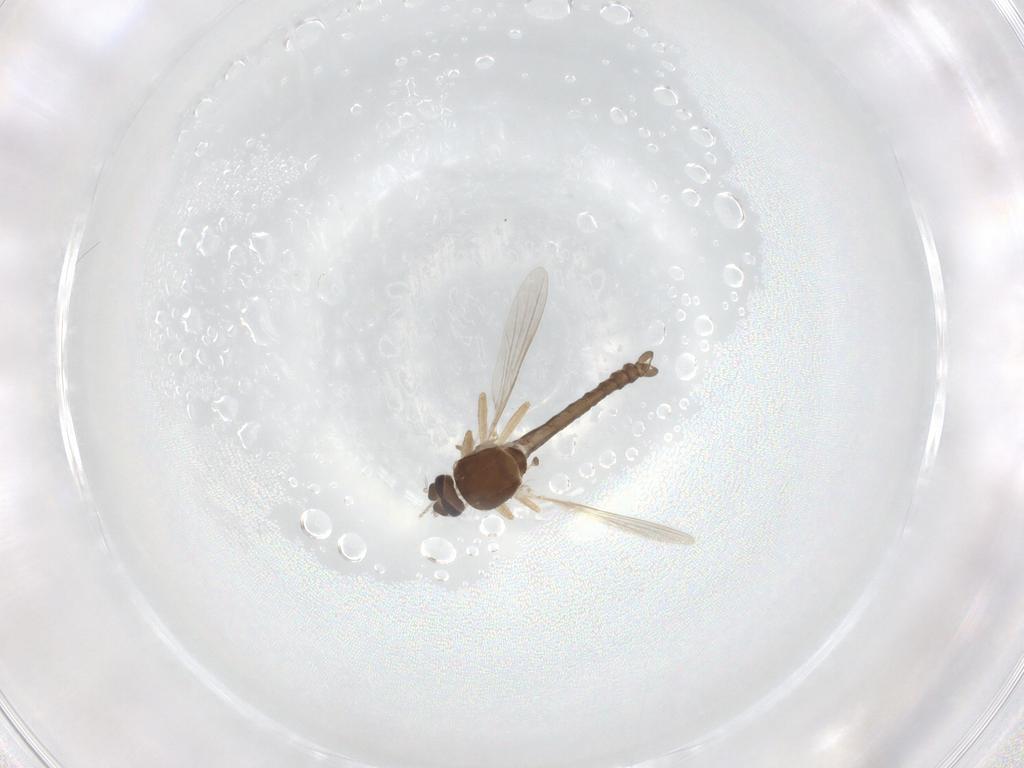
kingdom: Animalia
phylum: Arthropoda
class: Insecta
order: Diptera
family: Ceratopogonidae
